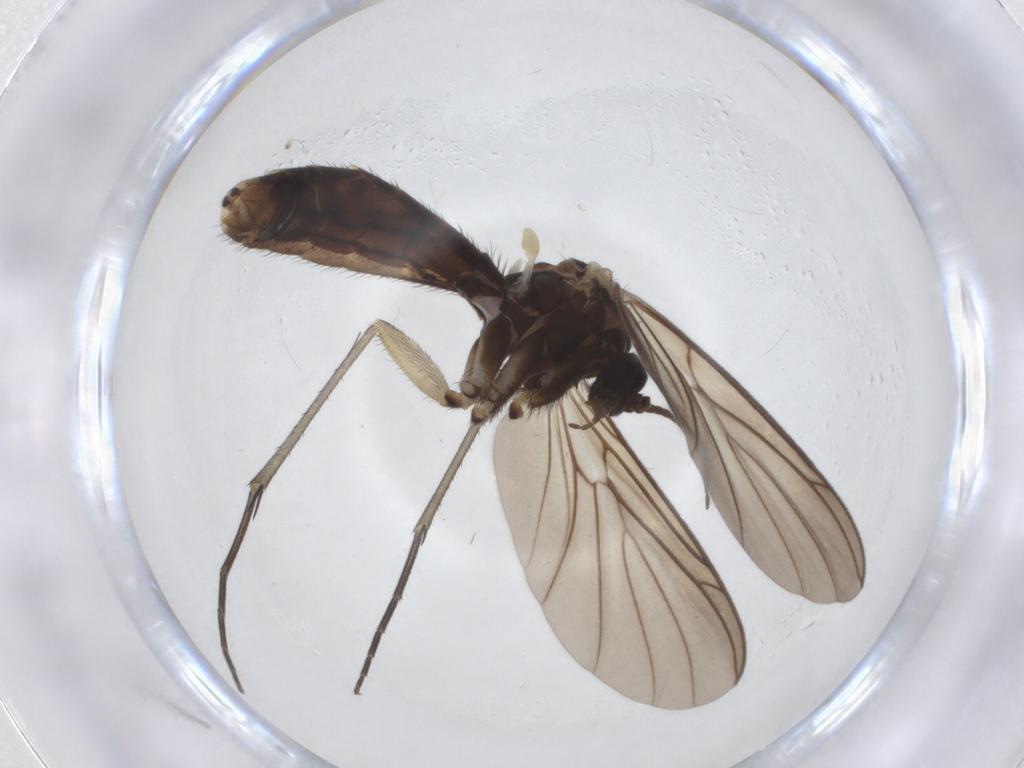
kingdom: Animalia
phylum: Arthropoda
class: Insecta
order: Diptera
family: Keroplatidae
